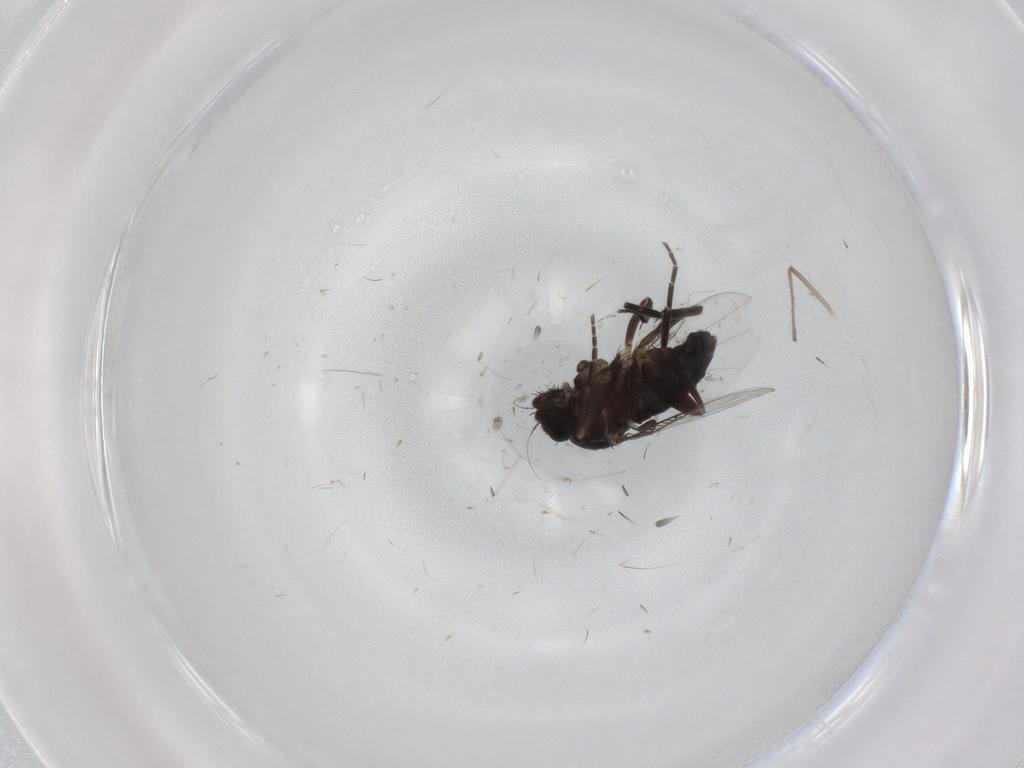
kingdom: Animalia
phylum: Arthropoda
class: Insecta
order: Diptera
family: Phoridae
